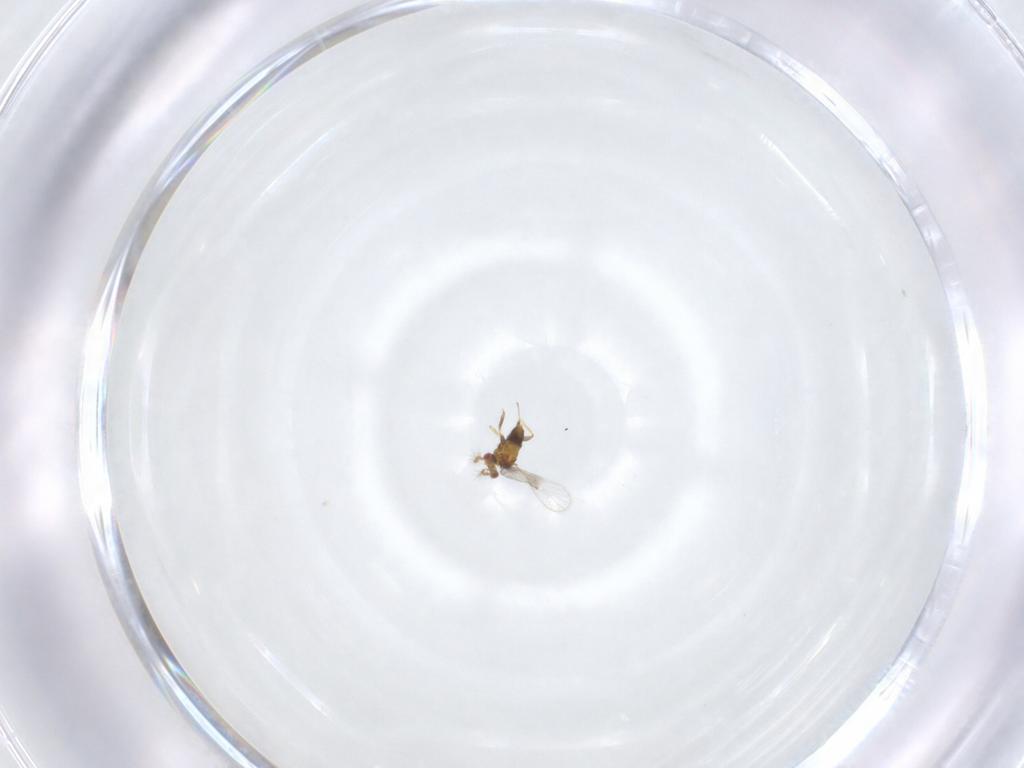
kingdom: Animalia
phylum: Arthropoda
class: Insecta
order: Hymenoptera
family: Trichogrammatidae
